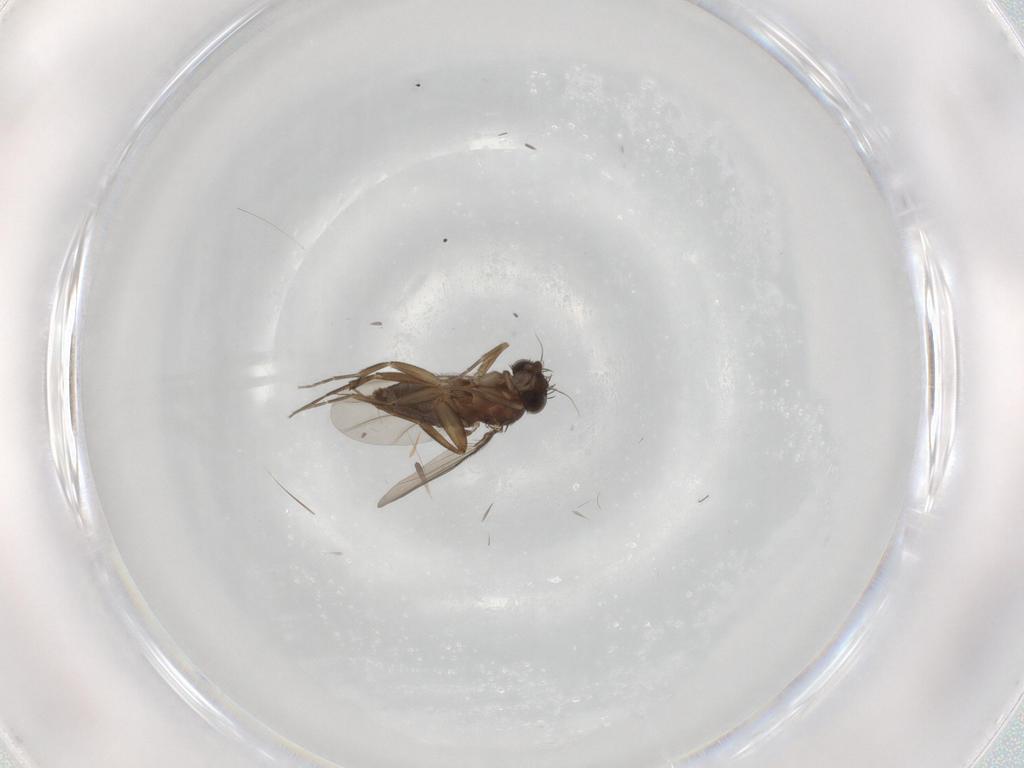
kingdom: Animalia
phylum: Arthropoda
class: Insecta
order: Diptera
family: Phoridae
